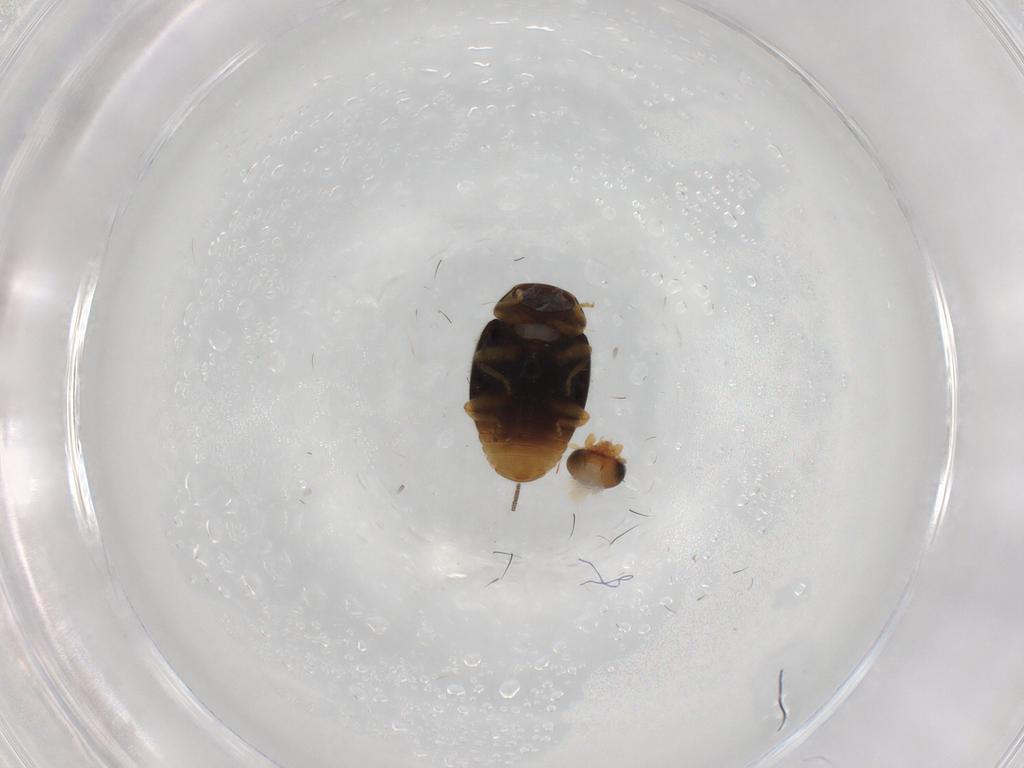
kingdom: Animalia
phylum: Arthropoda
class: Insecta
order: Coleoptera
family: Coccinellidae
